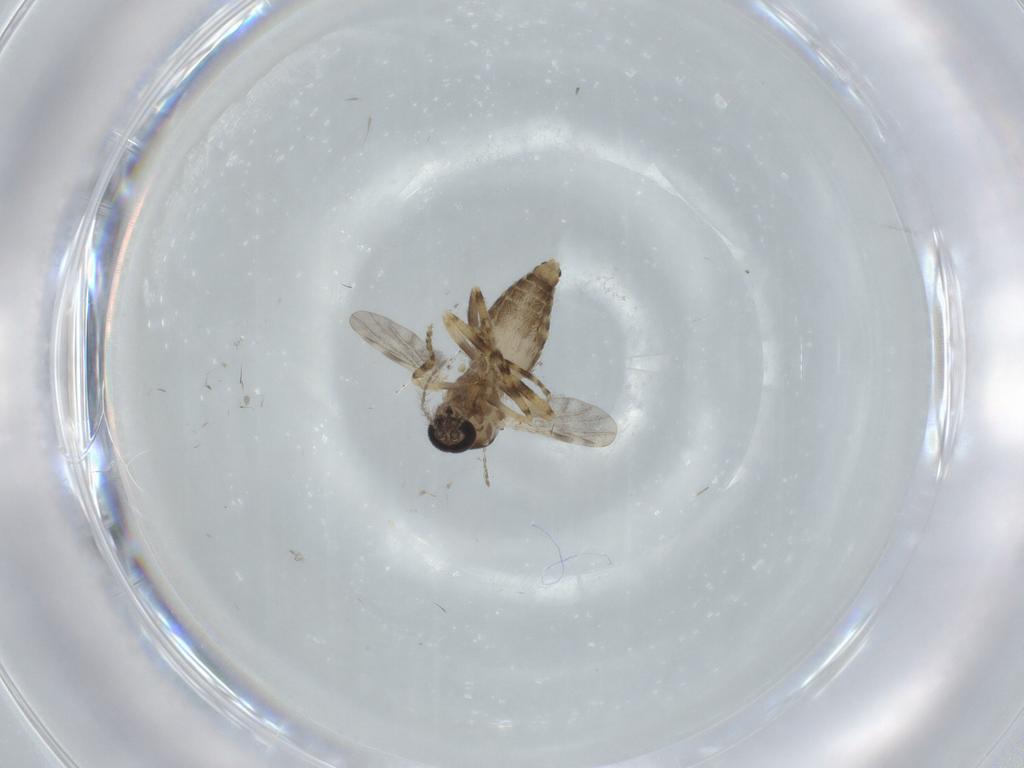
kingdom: Animalia
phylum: Arthropoda
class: Insecta
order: Diptera
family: Ceratopogonidae
